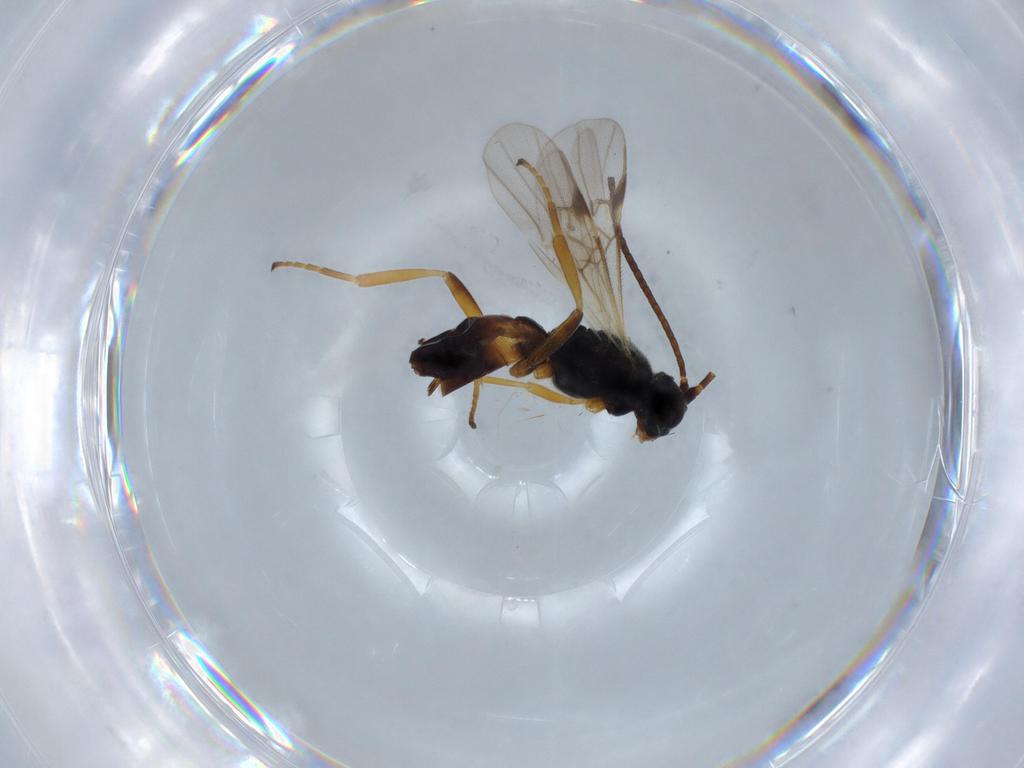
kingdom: Animalia
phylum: Arthropoda
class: Insecta
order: Hymenoptera
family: Braconidae
